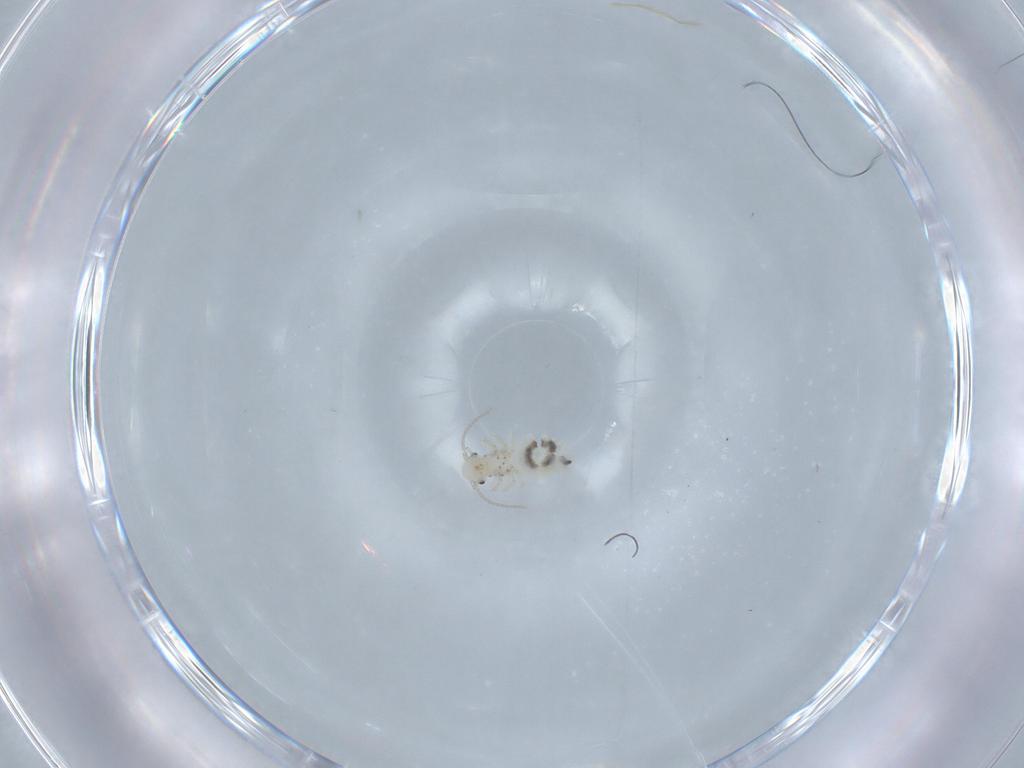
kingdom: Animalia
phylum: Arthropoda
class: Insecta
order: Psocodea
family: Caeciliusidae
